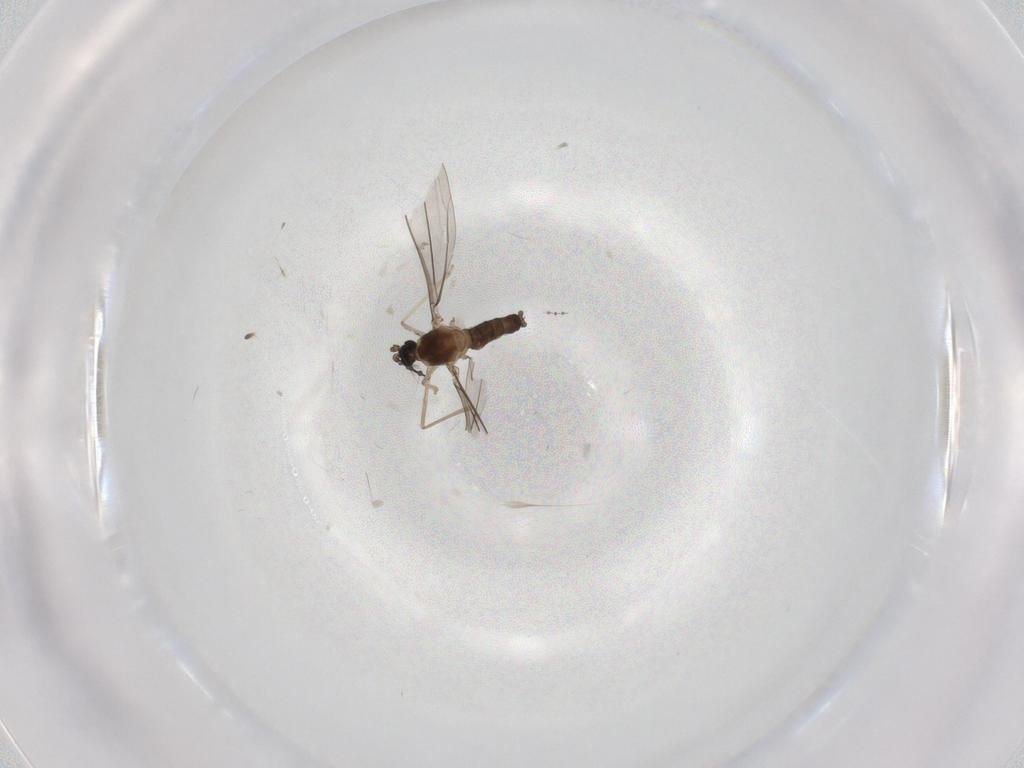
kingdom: Animalia
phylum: Arthropoda
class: Insecta
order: Diptera
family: Cecidomyiidae
